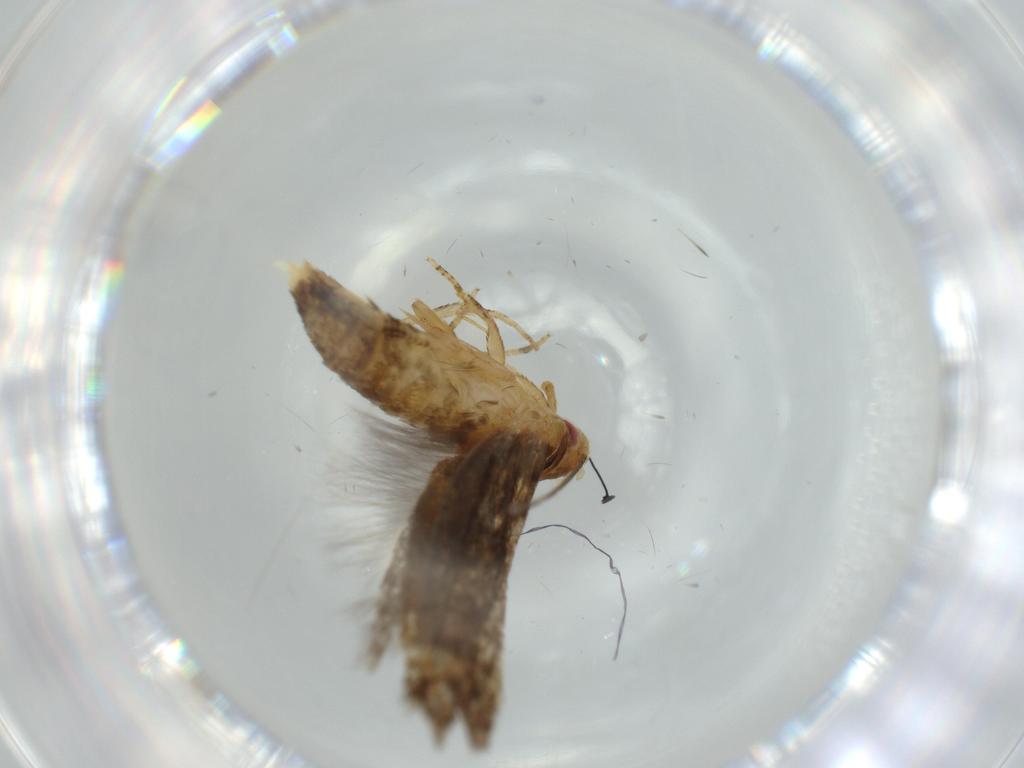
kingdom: Animalia
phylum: Arthropoda
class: Insecta
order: Lepidoptera
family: Momphidae
